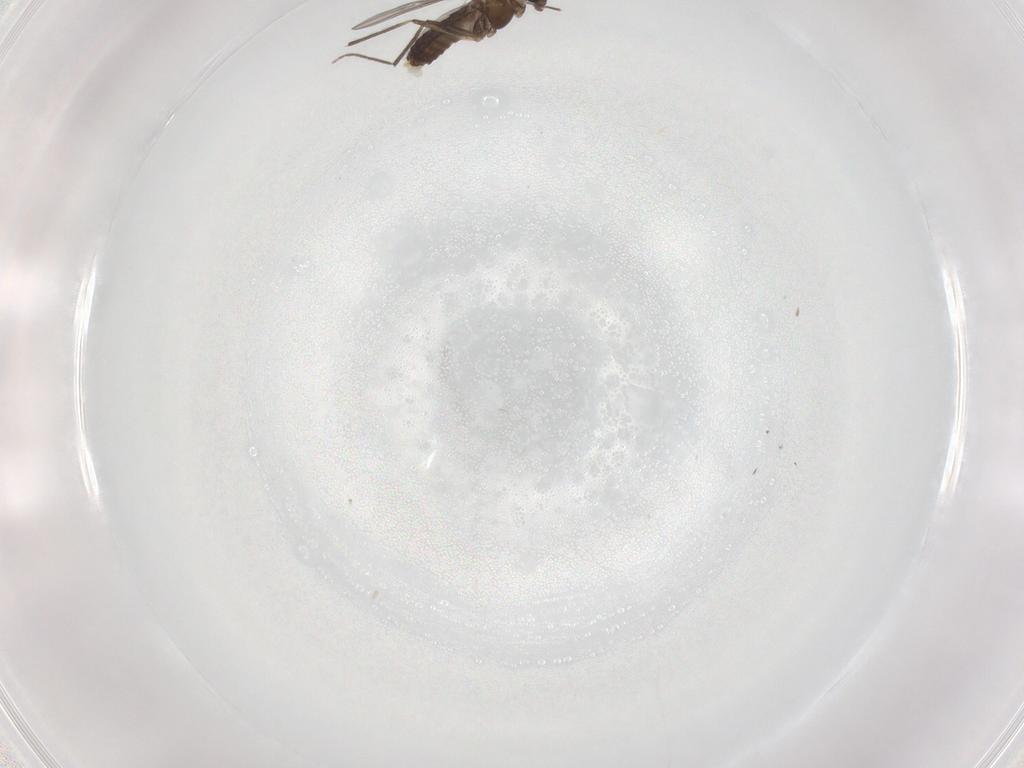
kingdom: Animalia
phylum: Arthropoda
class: Insecta
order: Diptera
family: Chironomidae
